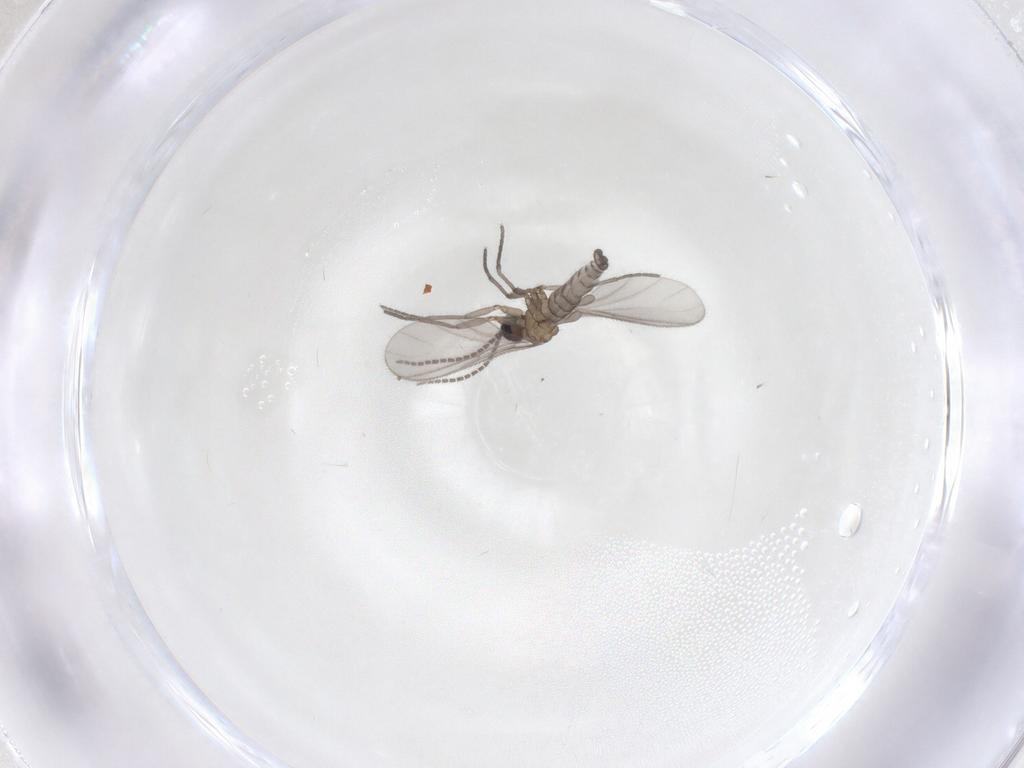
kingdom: Animalia
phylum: Arthropoda
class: Insecta
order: Diptera
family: Sciaridae
